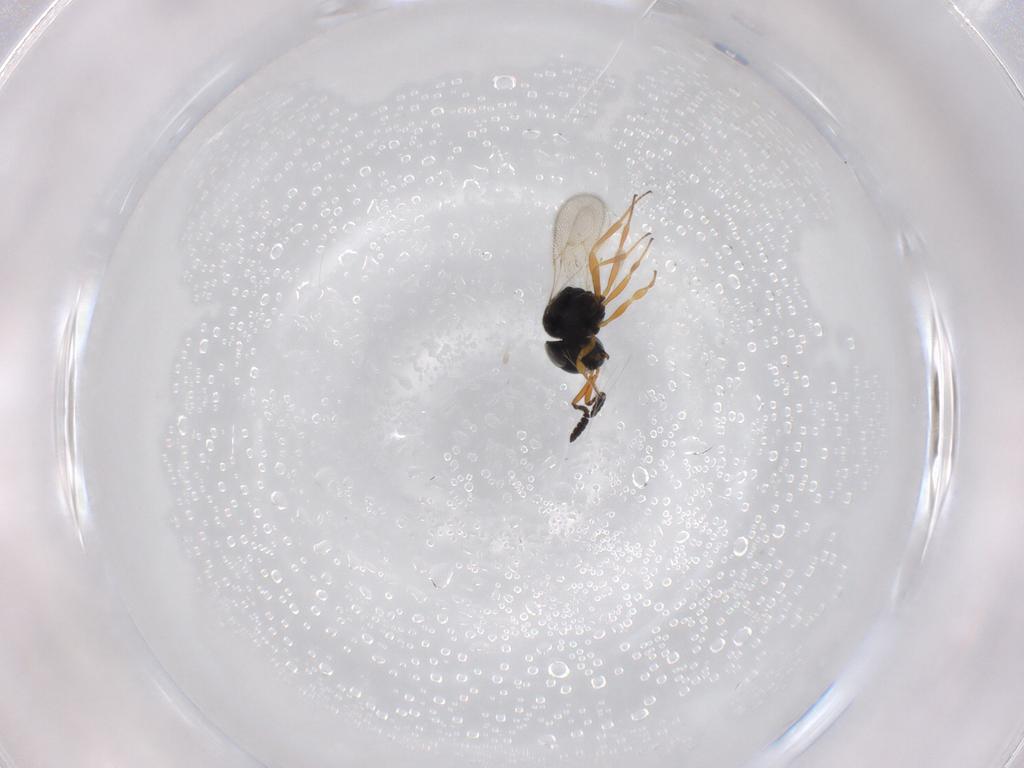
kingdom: Animalia
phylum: Arthropoda
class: Insecta
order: Hymenoptera
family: Scelionidae
